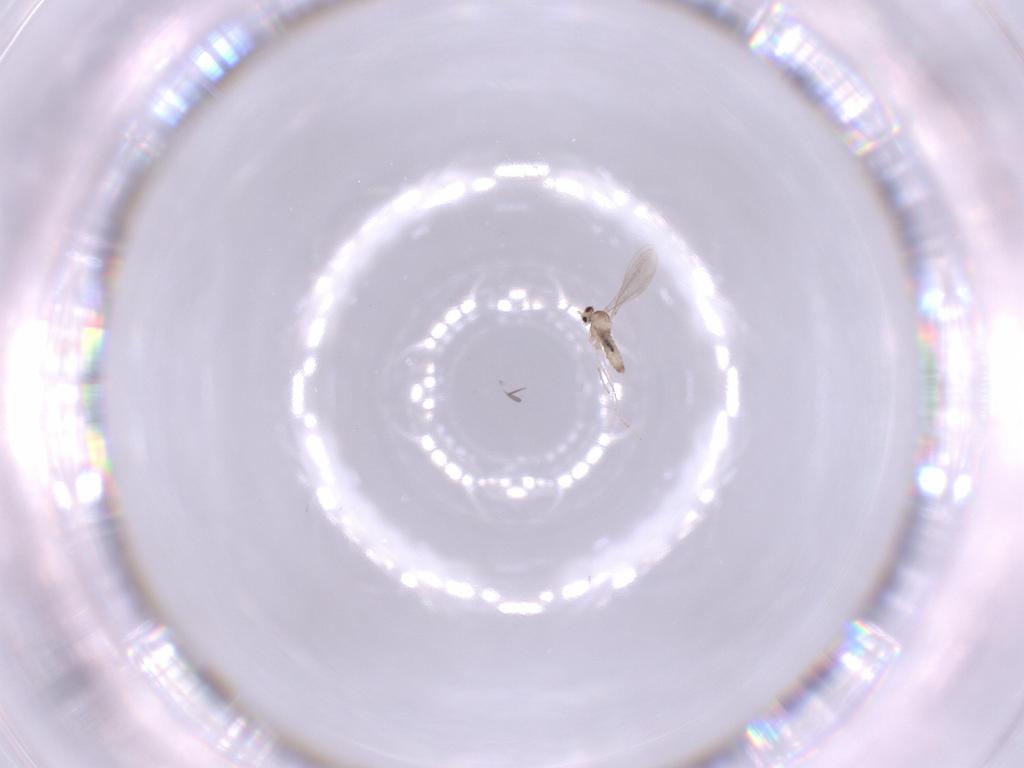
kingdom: Animalia
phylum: Arthropoda
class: Insecta
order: Diptera
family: Cecidomyiidae
